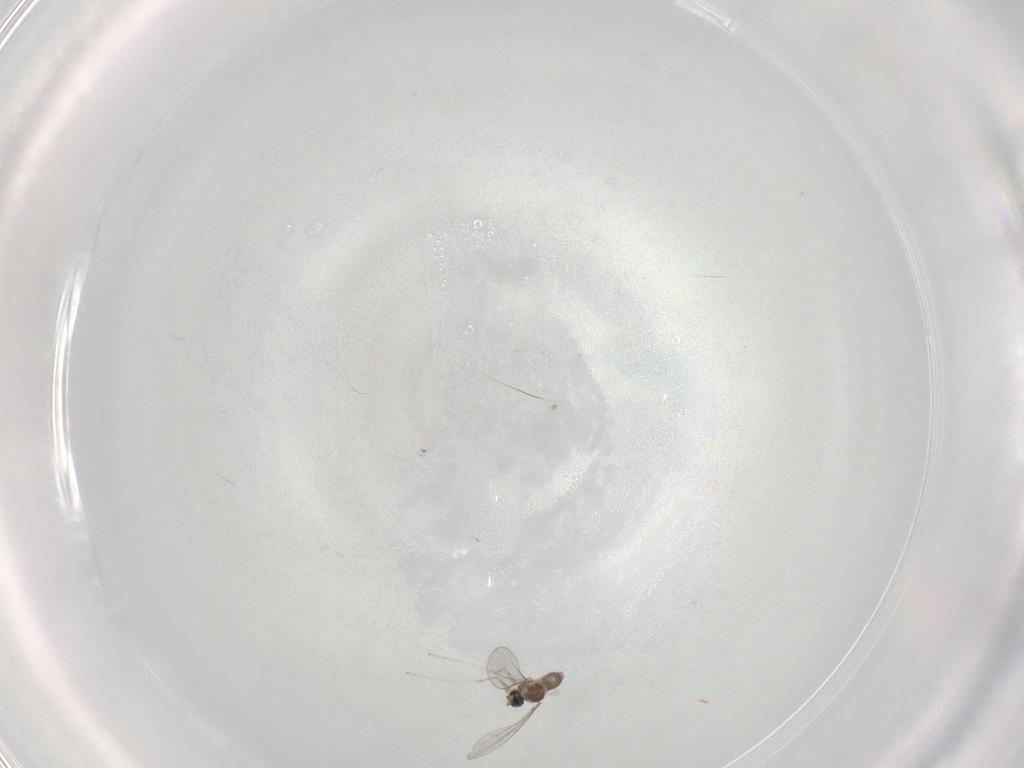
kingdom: Animalia
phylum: Arthropoda
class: Insecta
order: Diptera
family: Cecidomyiidae
